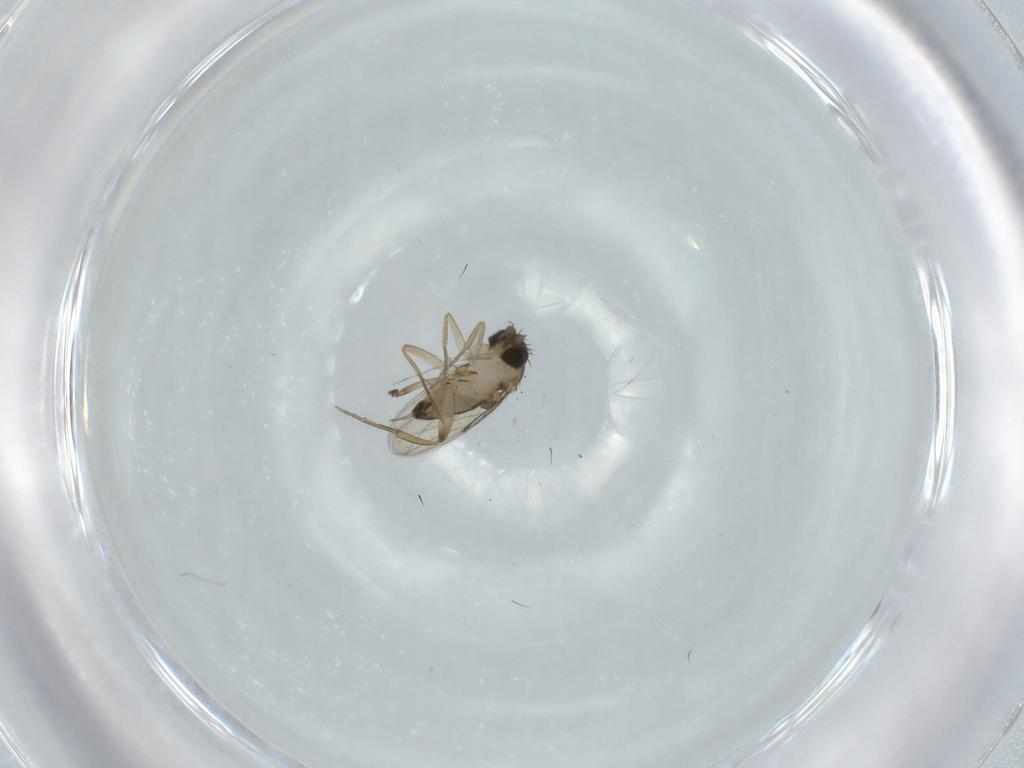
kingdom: Animalia
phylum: Arthropoda
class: Insecta
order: Diptera
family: Phoridae
